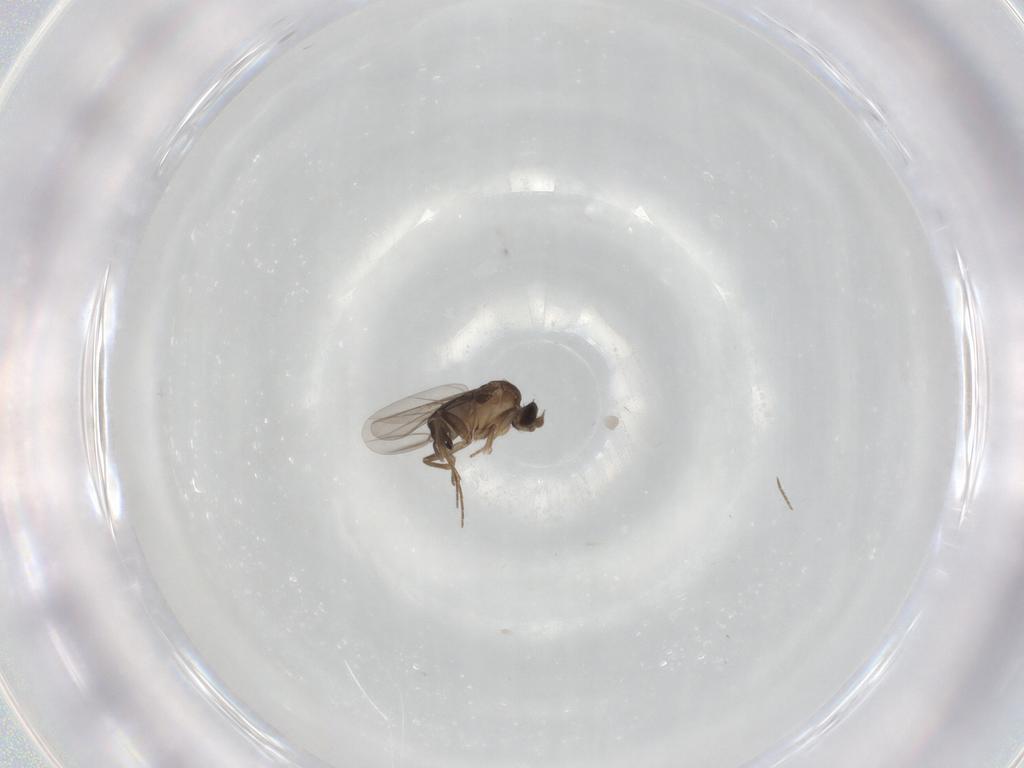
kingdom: Animalia
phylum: Arthropoda
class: Insecta
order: Diptera
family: Phoridae
